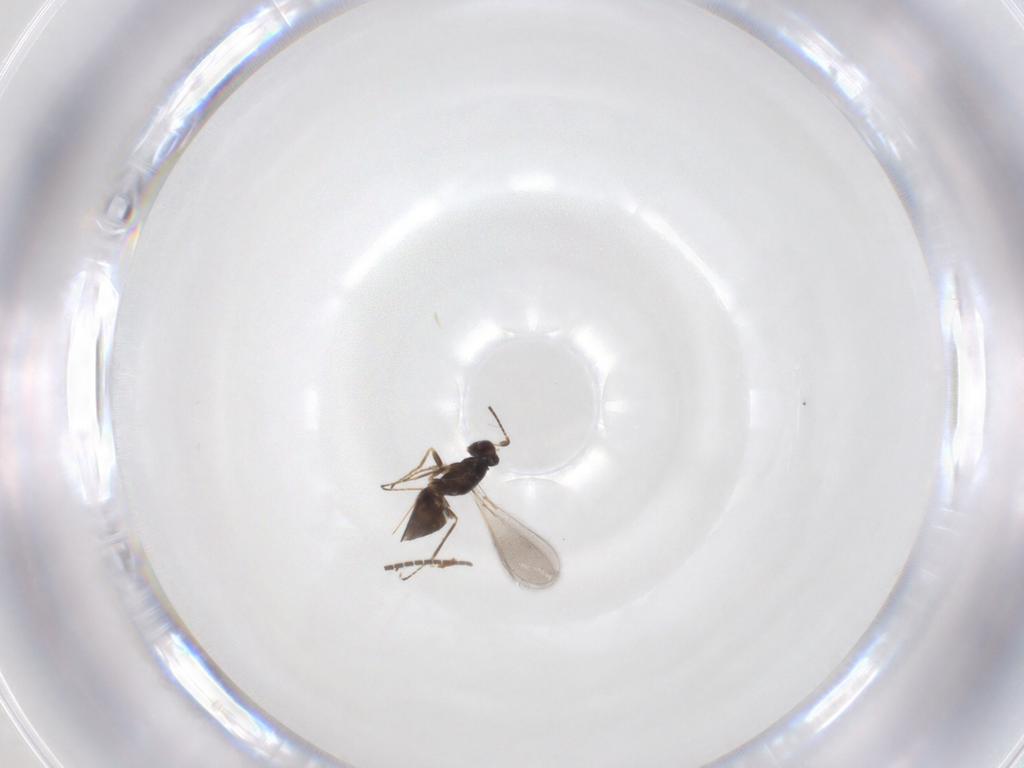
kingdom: Animalia
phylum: Arthropoda
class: Insecta
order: Hymenoptera
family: Mymaridae
